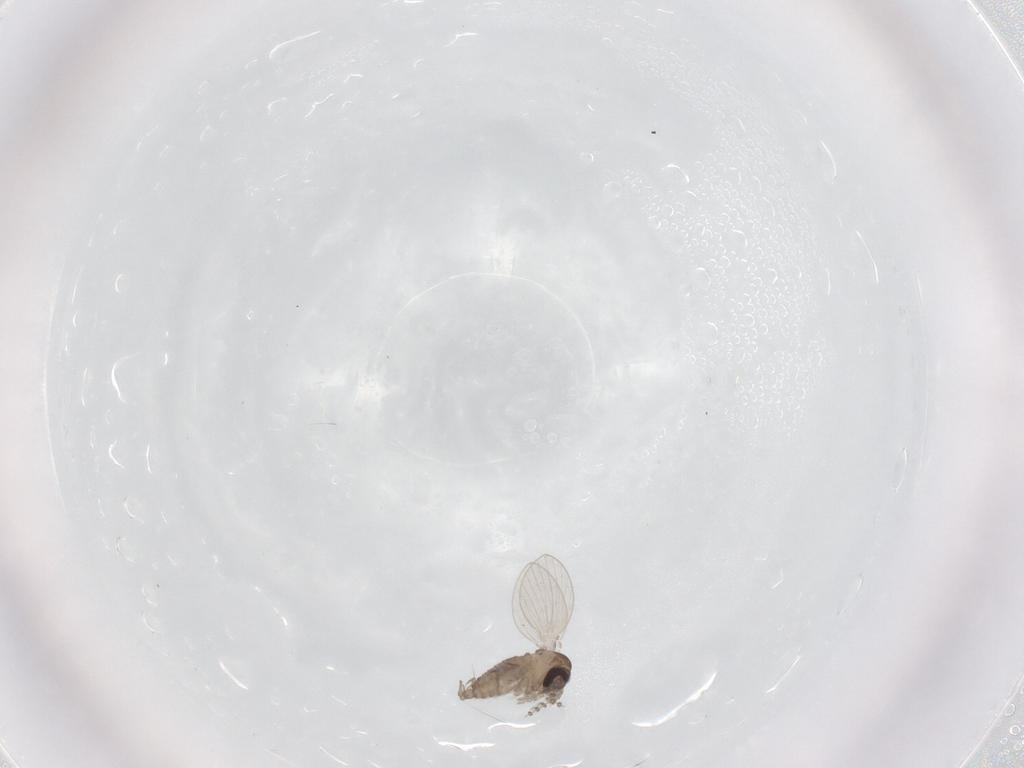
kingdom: Animalia
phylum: Arthropoda
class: Insecta
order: Diptera
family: Psychodidae
